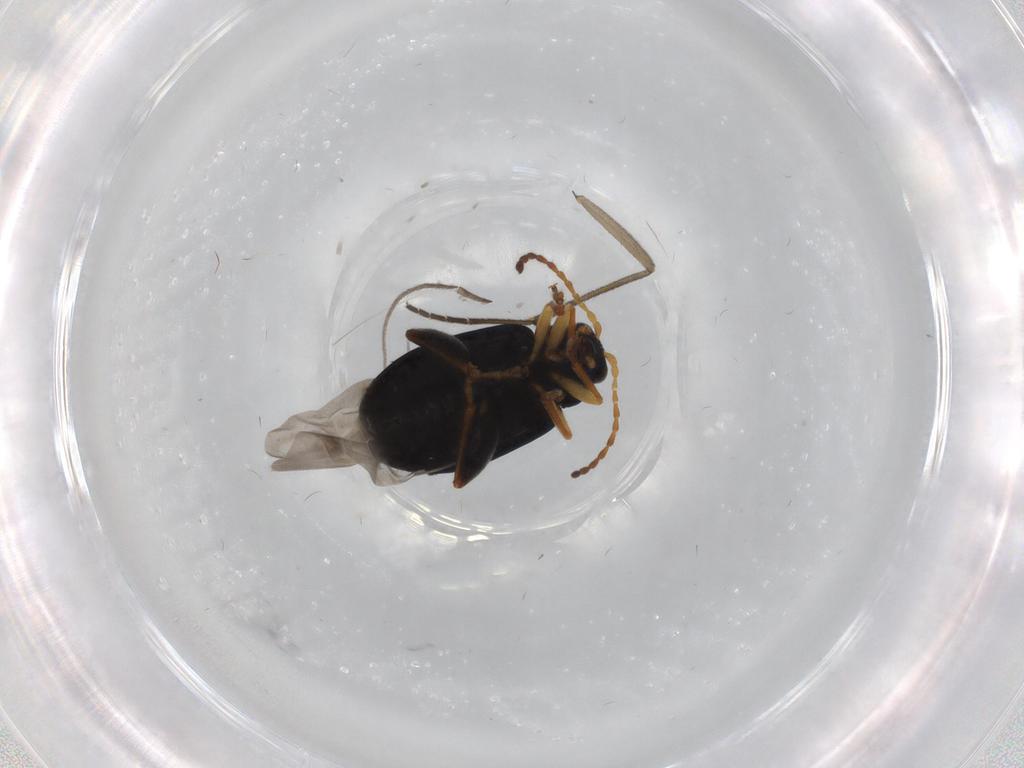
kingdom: Animalia
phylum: Arthropoda
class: Insecta
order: Coleoptera
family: Chrysomelidae
